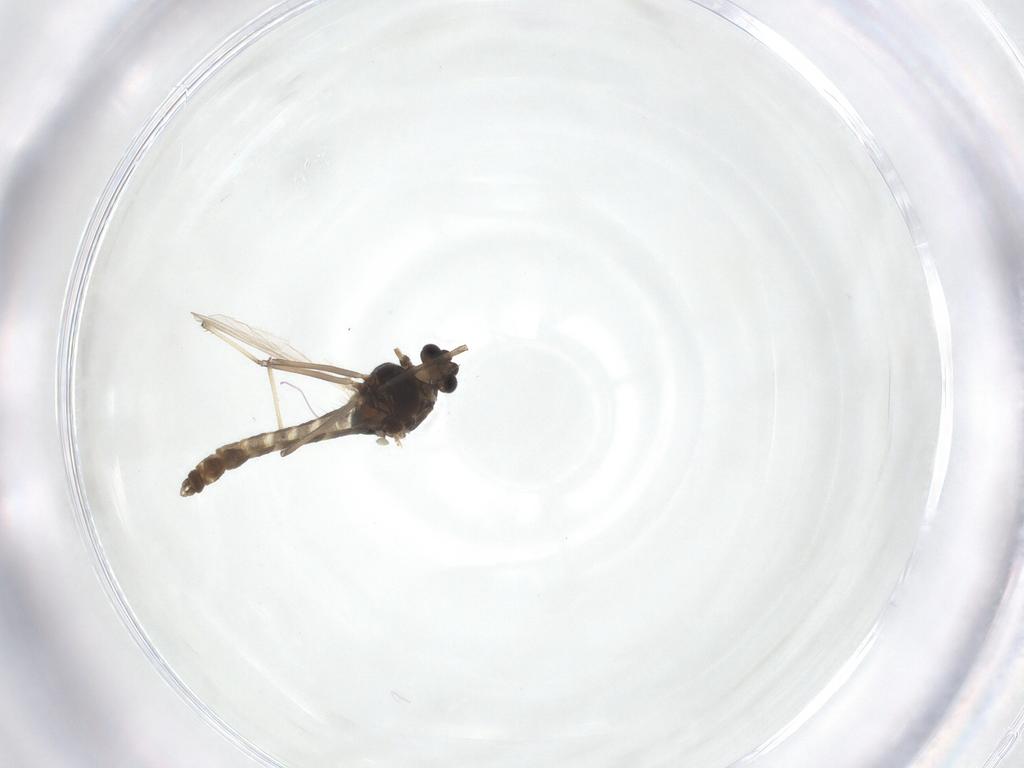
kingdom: Animalia
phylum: Arthropoda
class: Insecta
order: Diptera
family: Chironomidae
